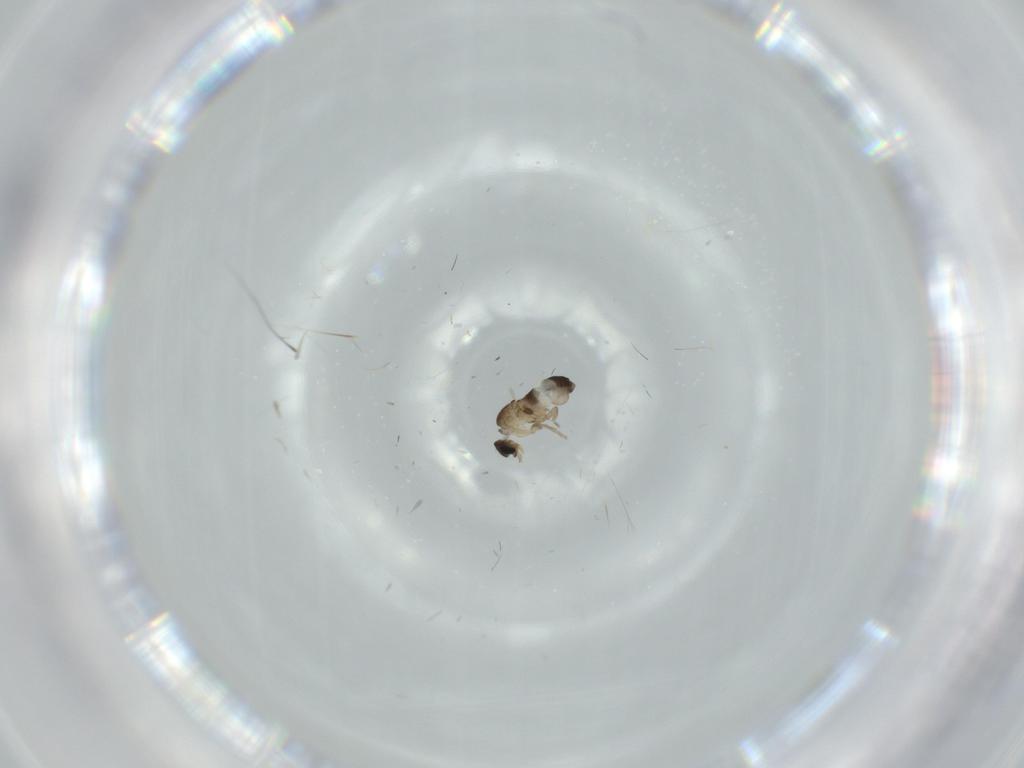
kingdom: Animalia
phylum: Arthropoda
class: Insecta
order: Diptera
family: Phoridae
